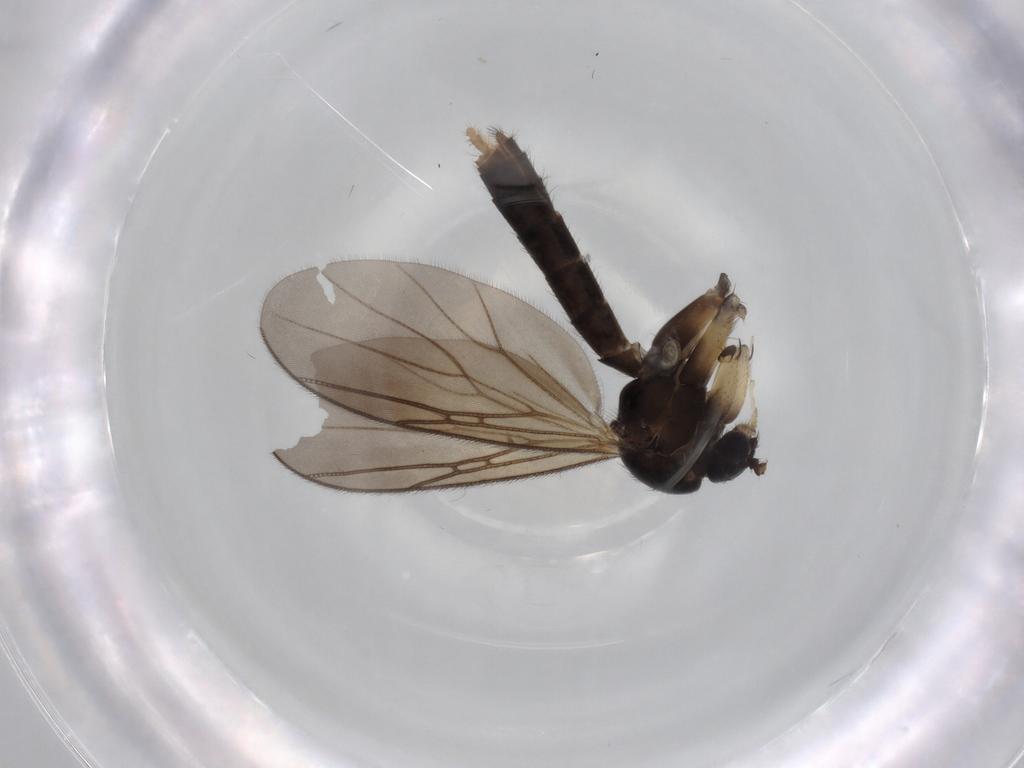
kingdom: Animalia
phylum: Arthropoda
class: Insecta
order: Diptera
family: Mycetophilidae
